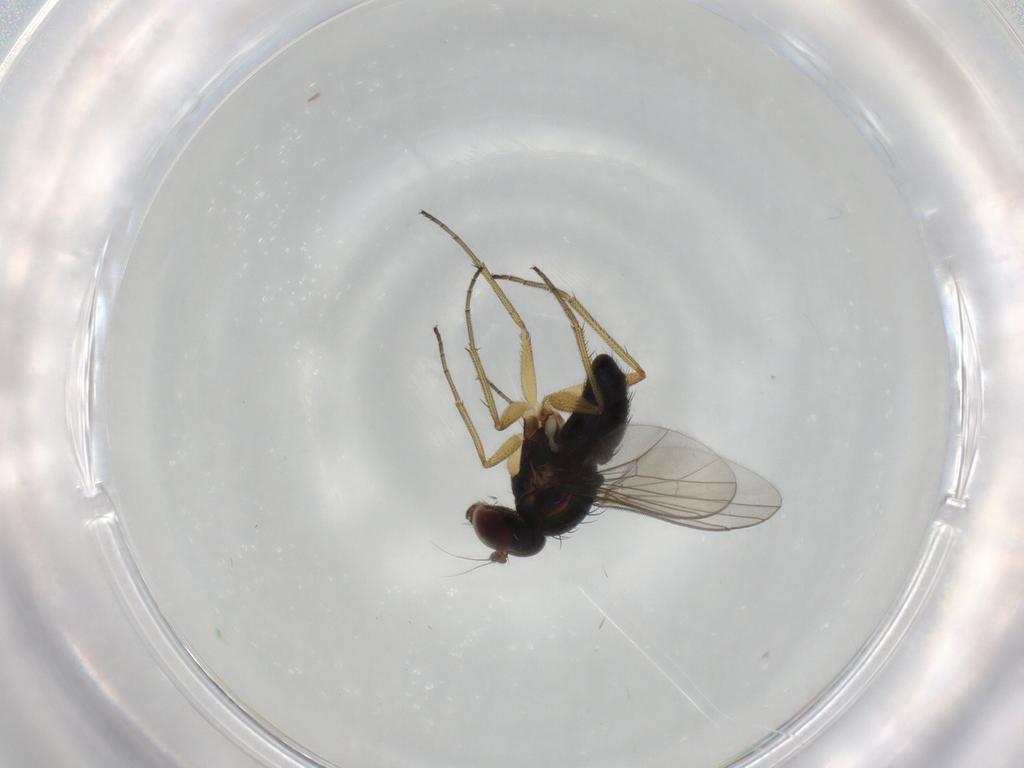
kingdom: Animalia
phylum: Arthropoda
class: Insecta
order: Diptera
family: Dolichopodidae
